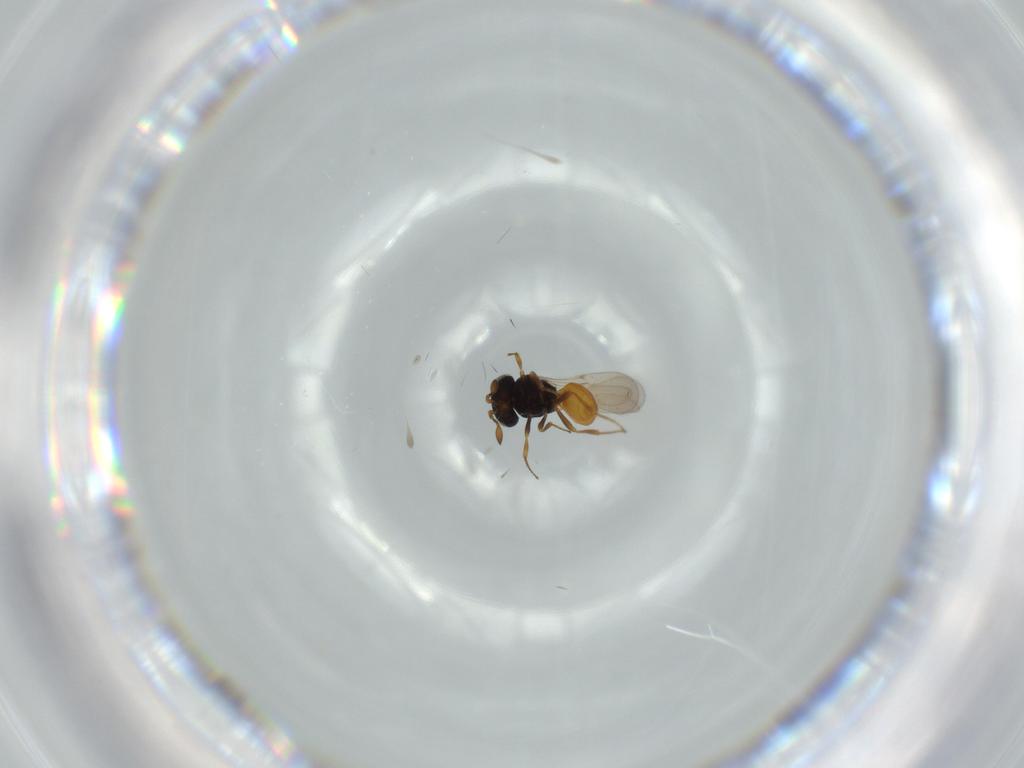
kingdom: Animalia
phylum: Arthropoda
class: Insecta
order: Hymenoptera
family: Scelionidae
